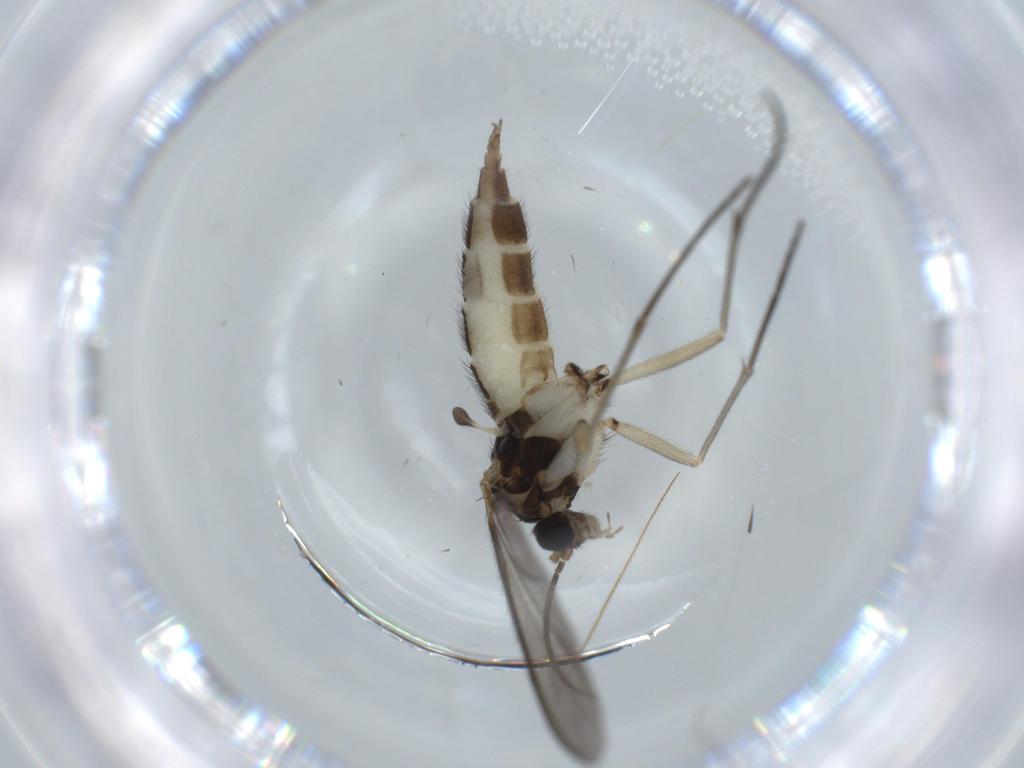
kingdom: Animalia
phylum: Arthropoda
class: Insecta
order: Diptera
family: Sciaridae
